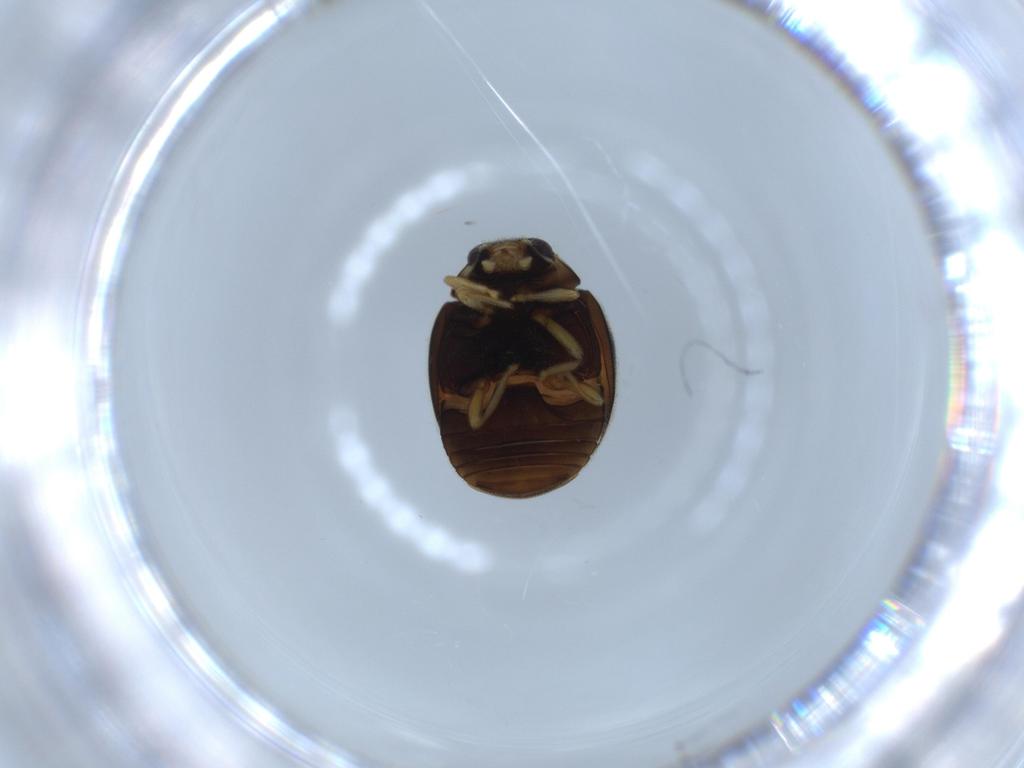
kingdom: Animalia
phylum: Arthropoda
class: Insecta
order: Coleoptera
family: Coccinellidae
